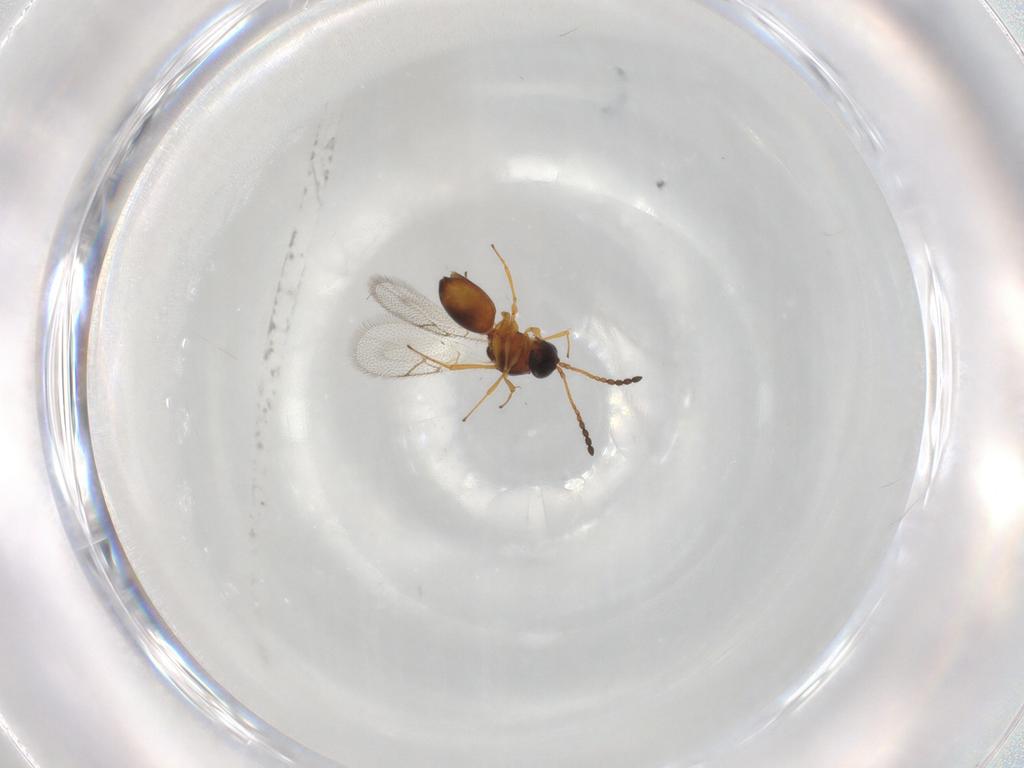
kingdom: Animalia
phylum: Arthropoda
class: Insecta
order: Hymenoptera
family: Figitidae
